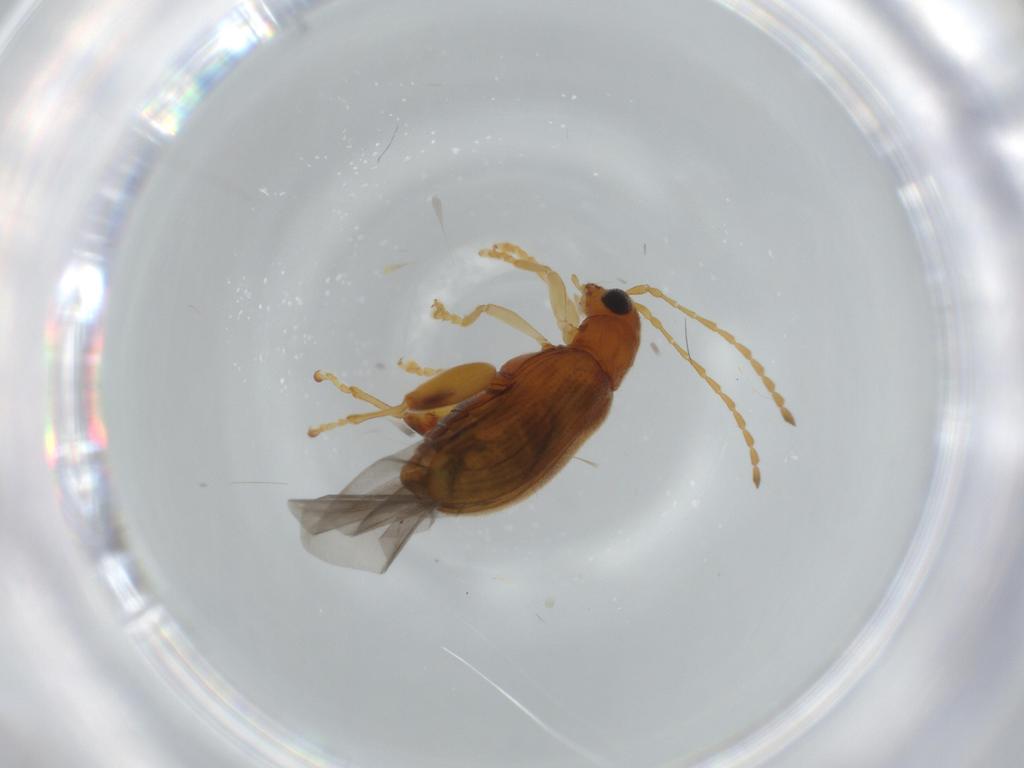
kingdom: Animalia
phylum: Arthropoda
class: Insecta
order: Coleoptera
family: Chrysomelidae
